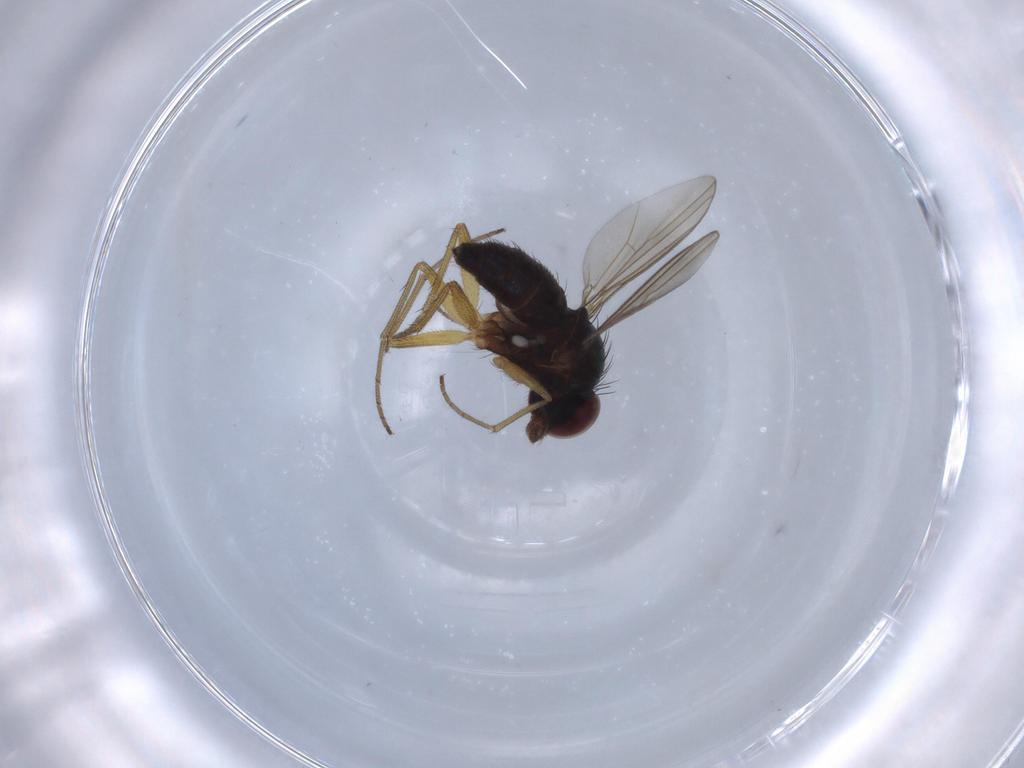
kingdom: Animalia
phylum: Arthropoda
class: Insecta
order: Diptera
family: Dolichopodidae
